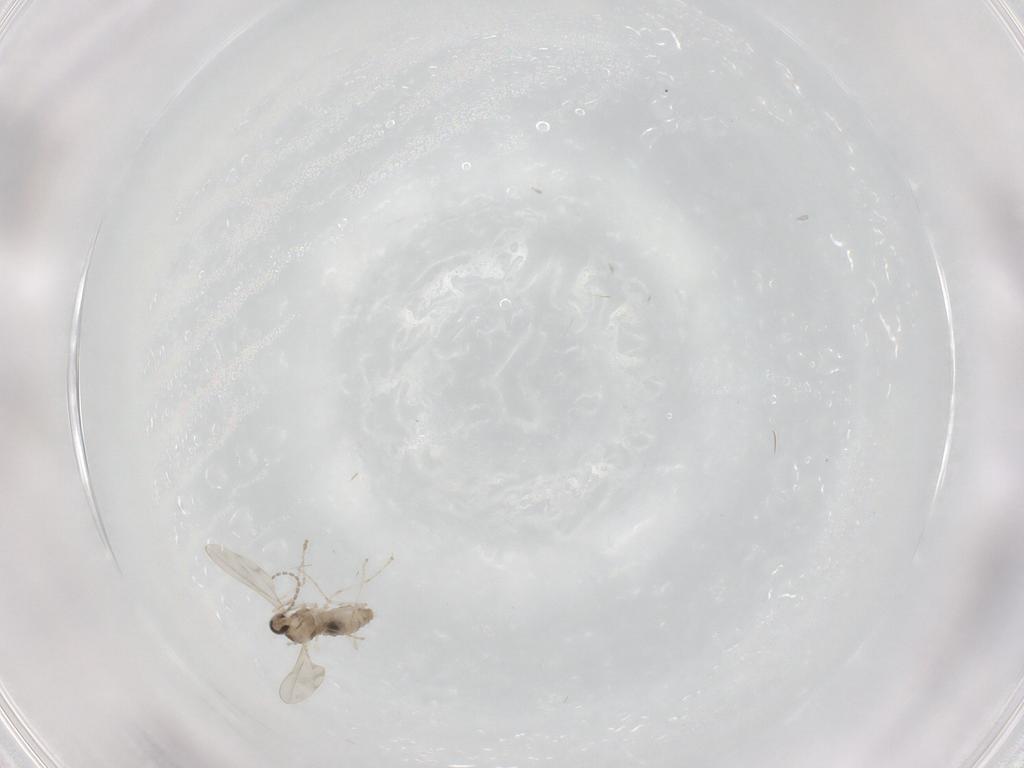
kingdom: Animalia
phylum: Arthropoda
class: Insecta
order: Diptera
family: Cecidomyiidae
